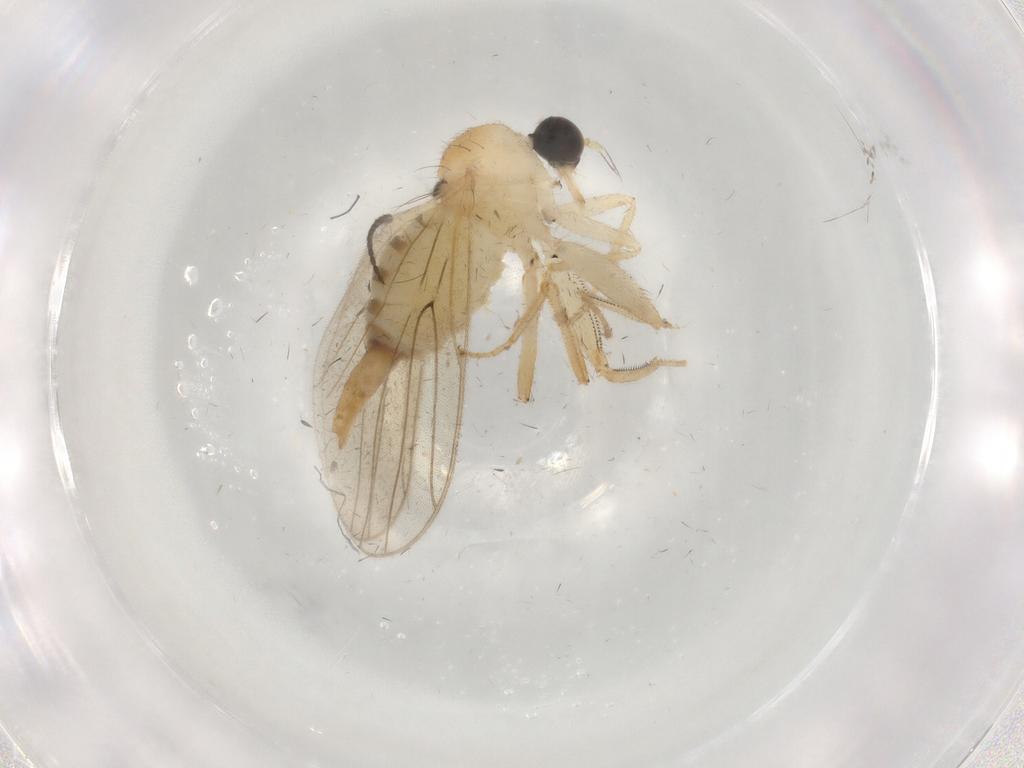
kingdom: Animalia
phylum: Arthropoda
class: Insecta
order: Diptera
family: Hybotidae
